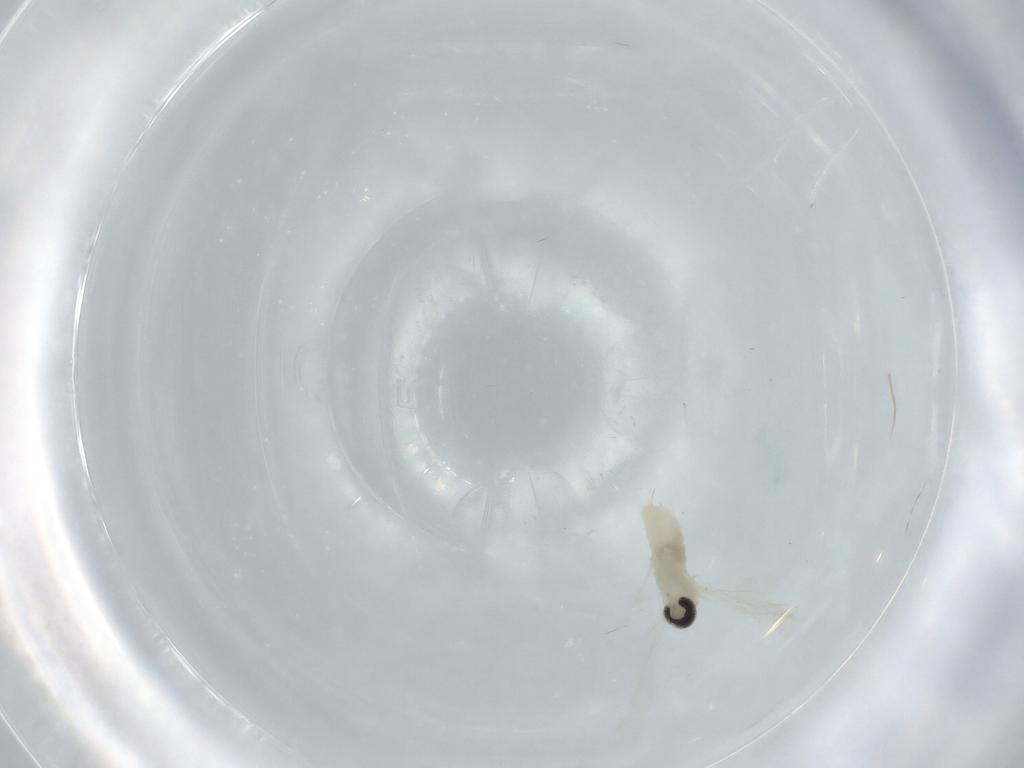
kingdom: Animalia
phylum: Arthropoda
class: Insecta
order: Diptera
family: Cecidomyiidae
